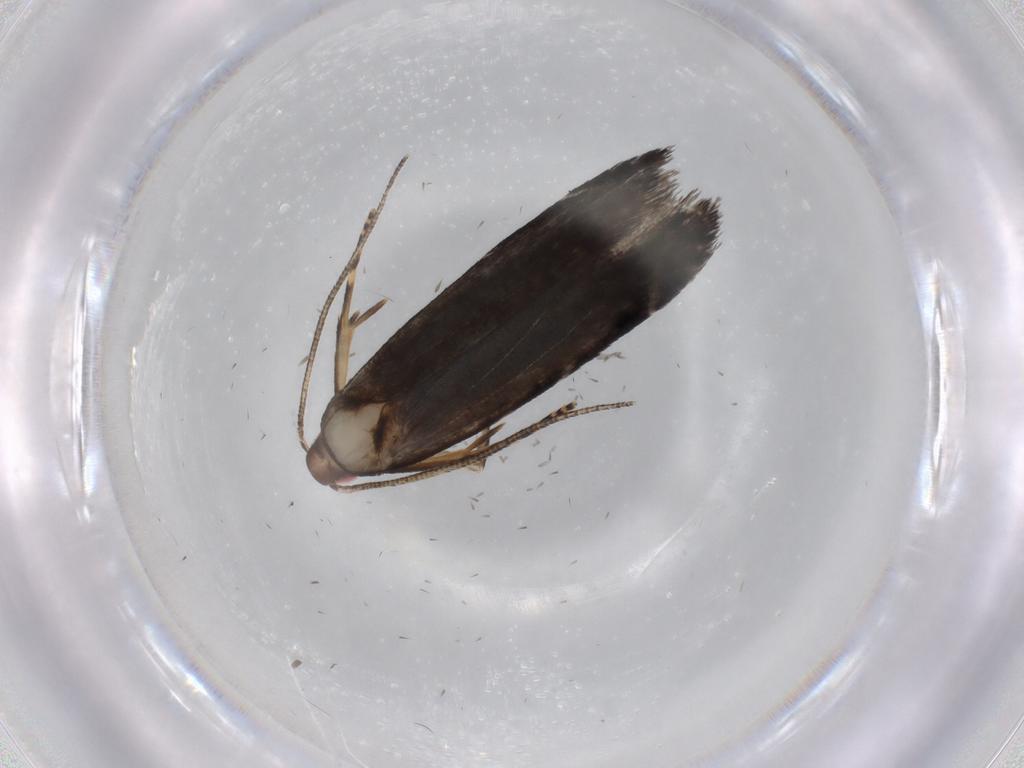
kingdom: Animalia
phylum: Arthropoda
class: Insecta
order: Lepidoptera
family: Gelechiidae
